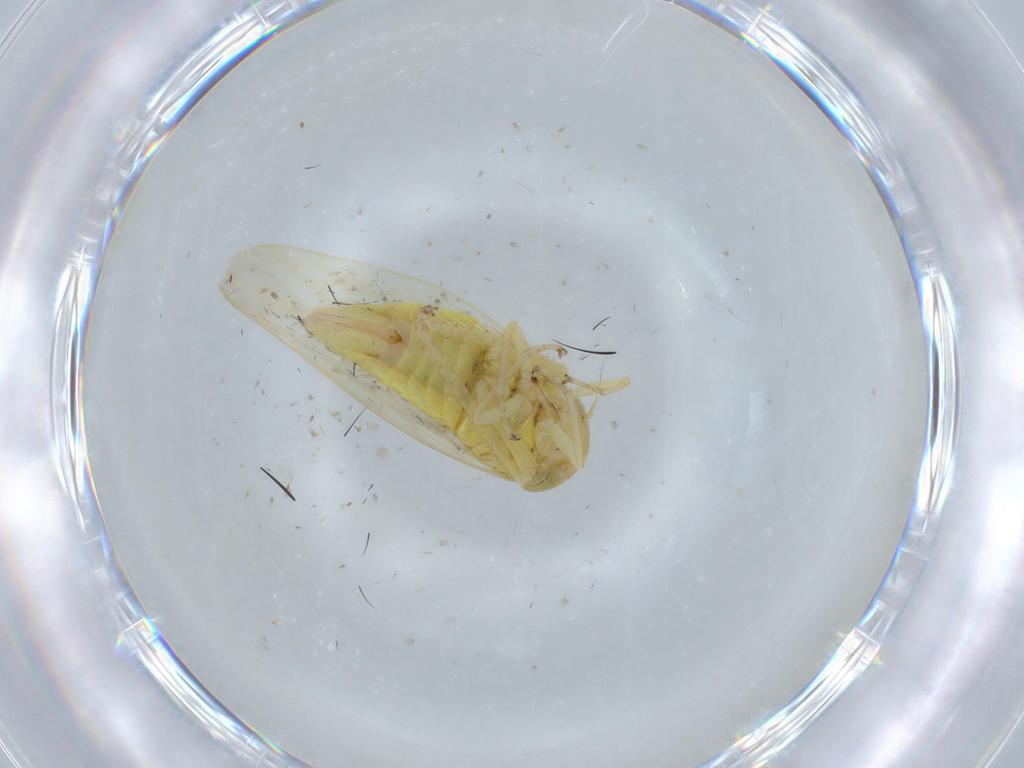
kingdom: Animalia
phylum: Arthropoda
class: Insecta
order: Hemiptera
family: Cicadellidae
